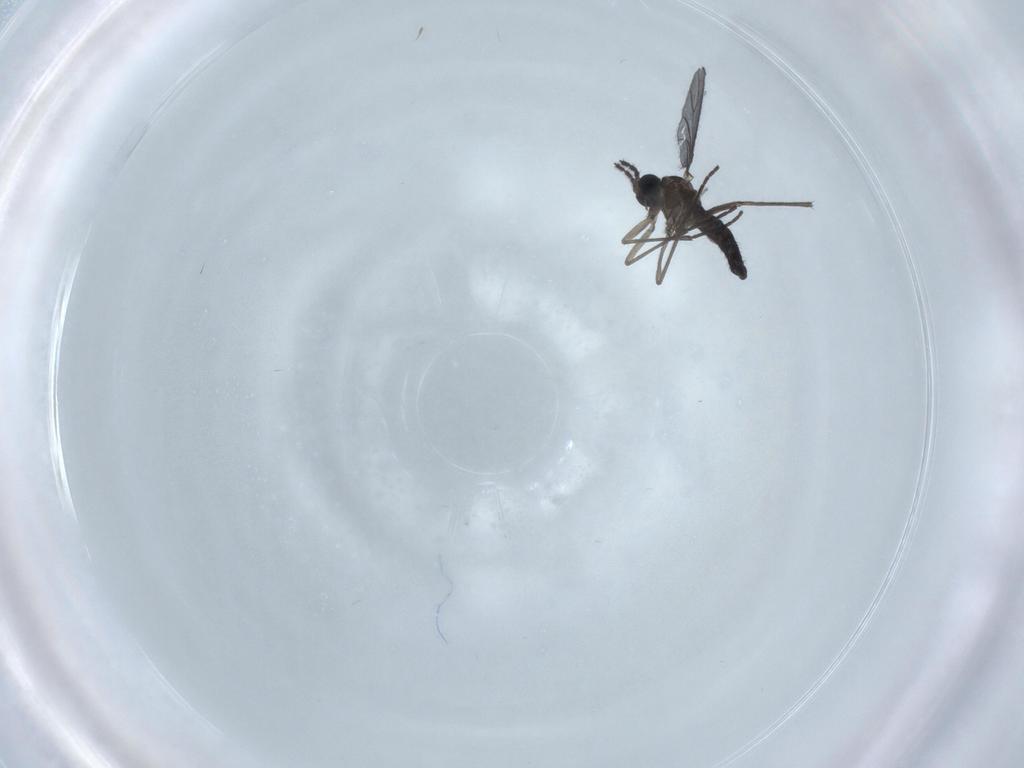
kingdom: Animalia
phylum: Arthropoda
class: Insecta
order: Diptera
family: Sciaridae
